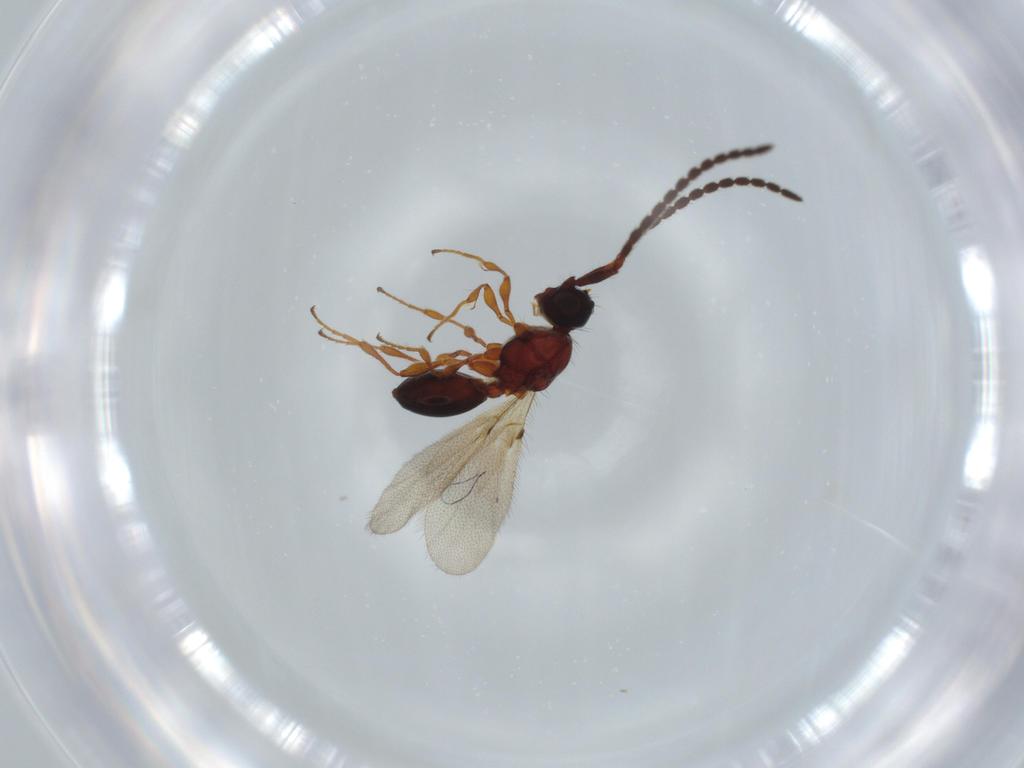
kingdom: Animalia
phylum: Arthropoda
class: Insecta
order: Hymenoptera
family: Diapriidae
